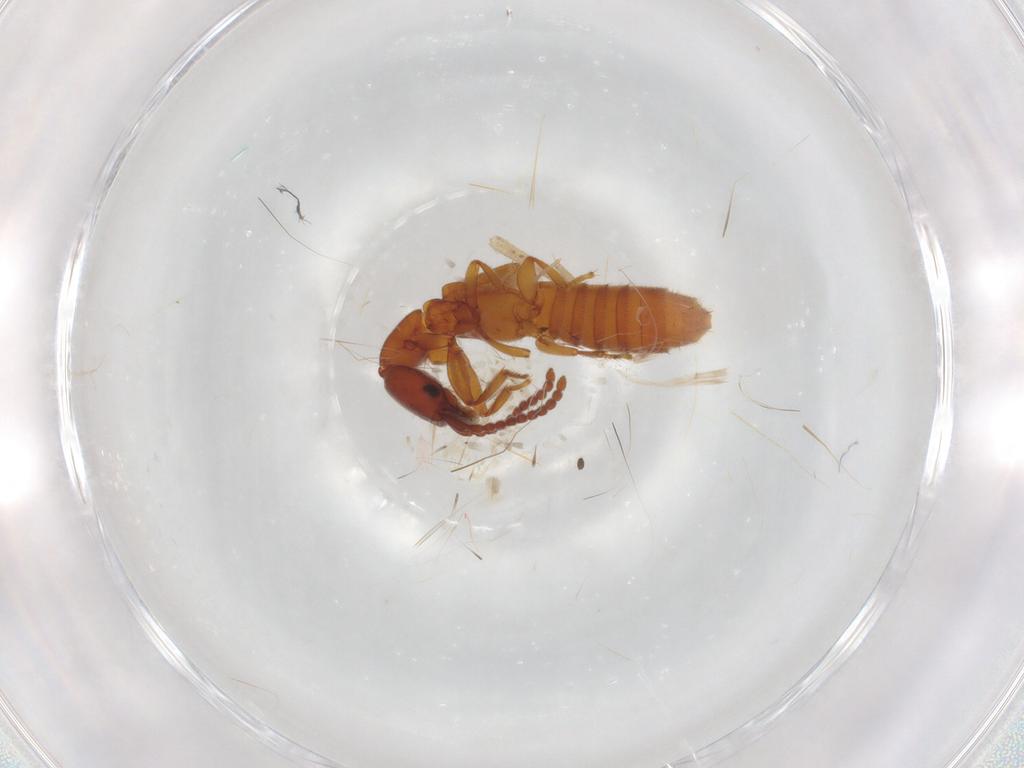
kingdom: Animalia
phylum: Arthropoda
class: Insecta
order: Coleoptera
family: Staphylinidae
